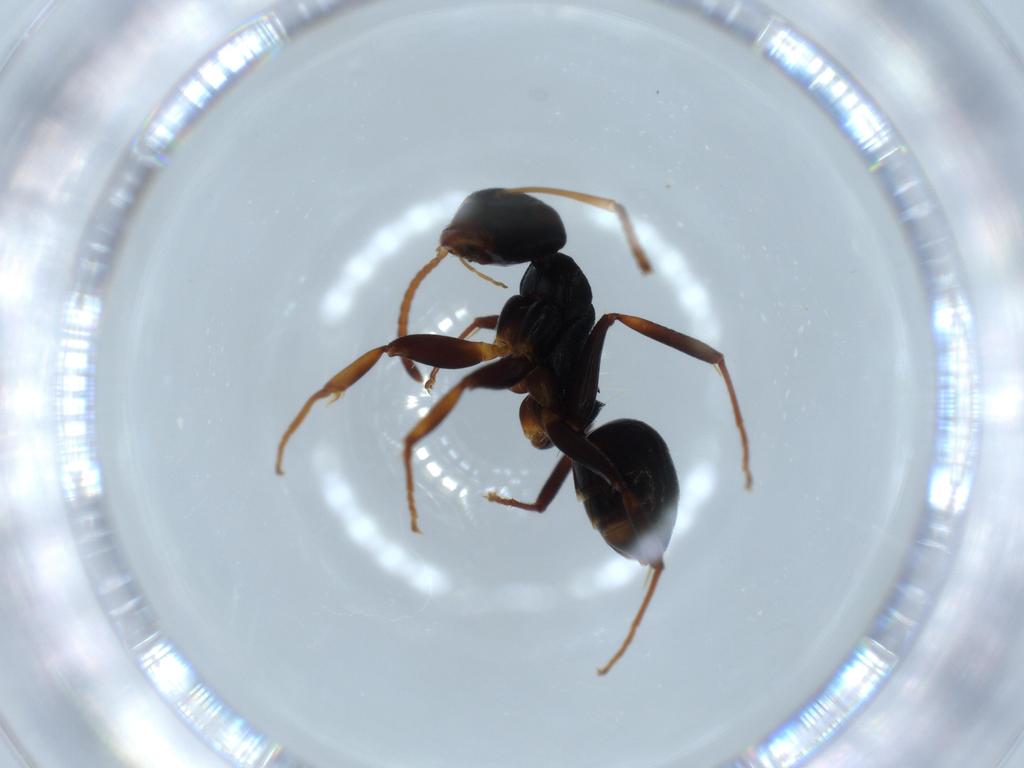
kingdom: Animalia
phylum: Arthropoda
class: Insecta
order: Hymenoptera
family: Formicidae
